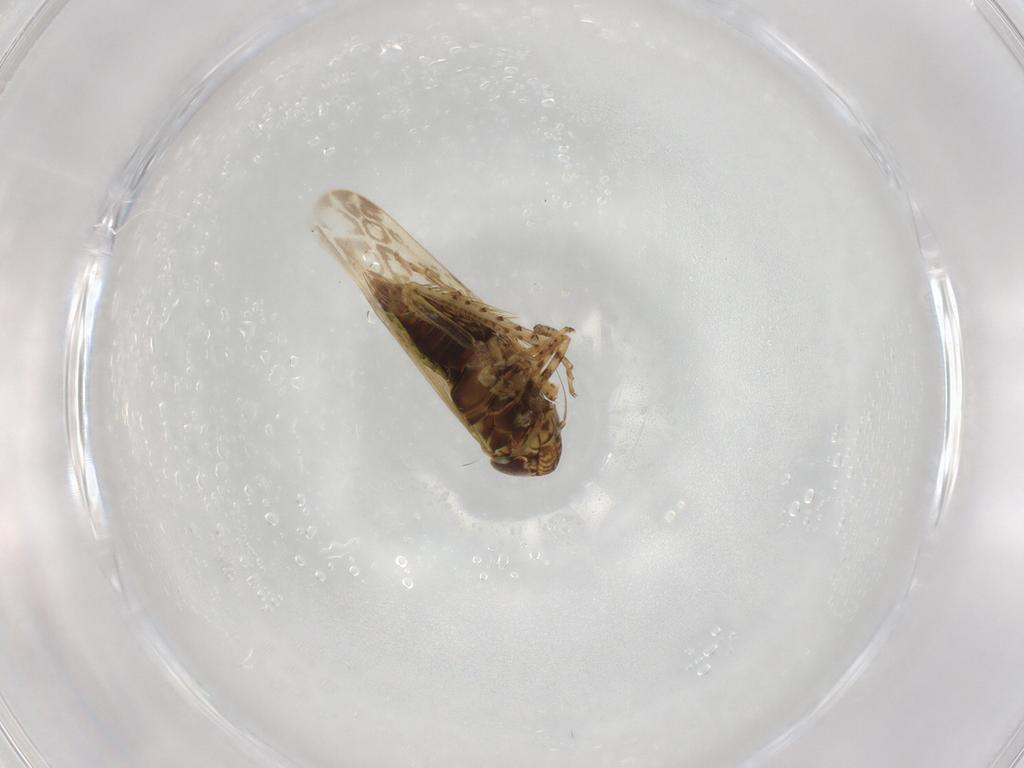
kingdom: Animalia
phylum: Arthropoda
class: Insecta
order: Hemiptera
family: Cicadellidae
